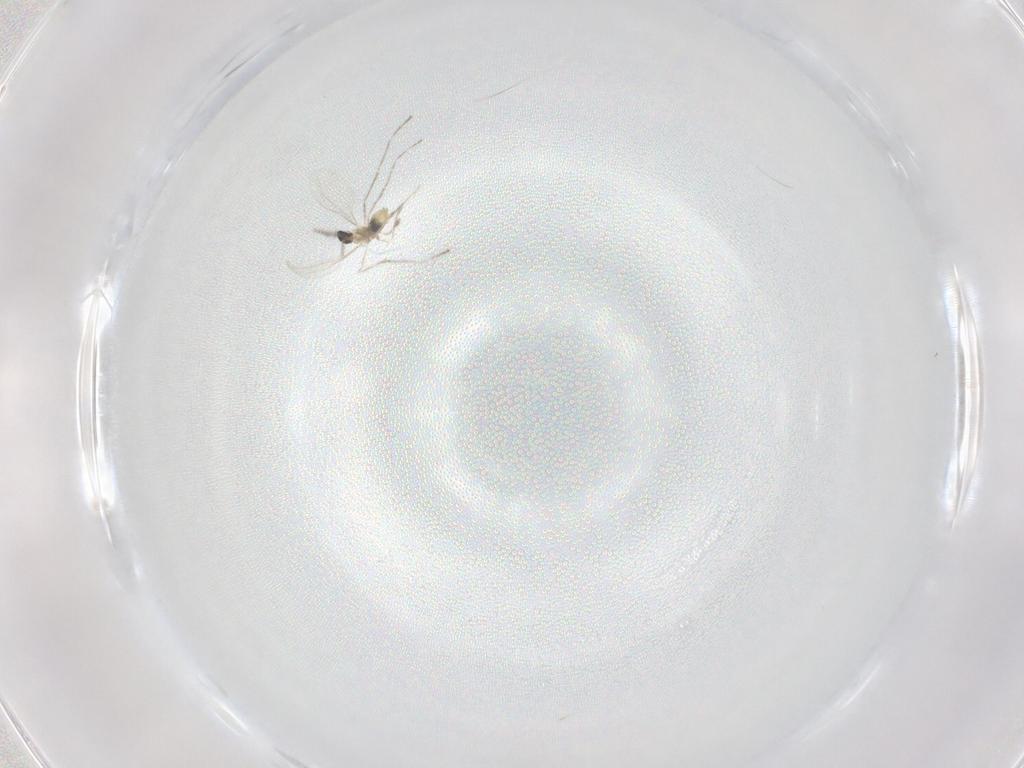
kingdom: Animalia
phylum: Arthropoda
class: Insecta
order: Diptera
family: Cecidomyiidae
